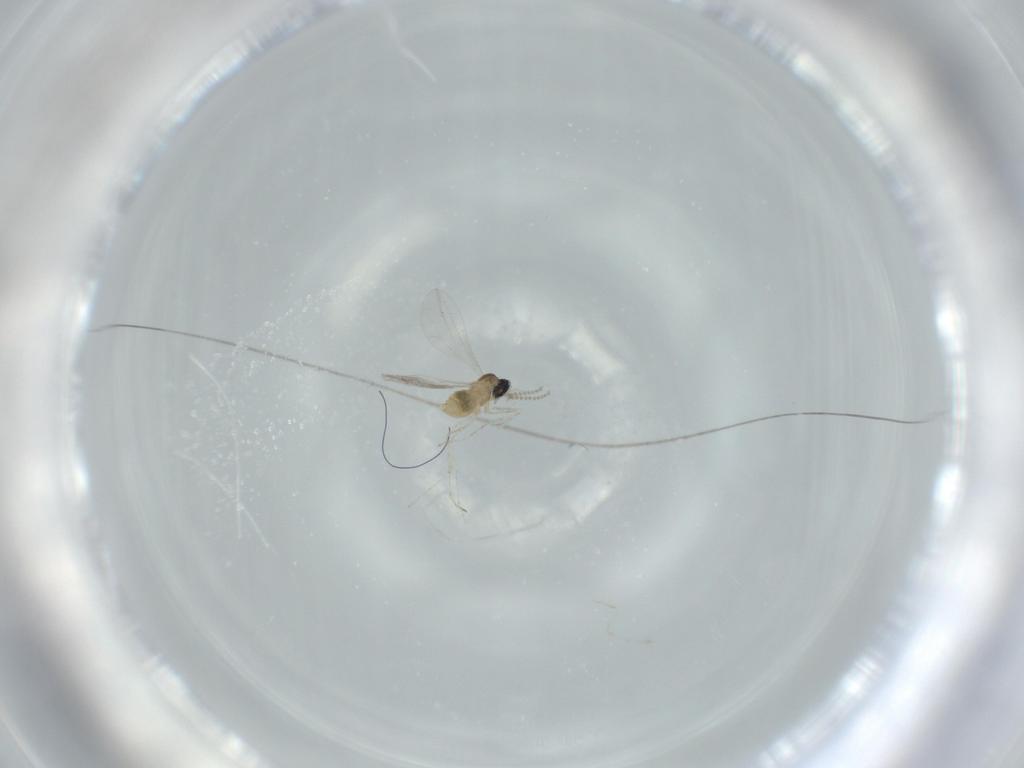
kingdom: Animalia
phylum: Arthropoda
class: Insecta
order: Diptera
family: Cecidomyiidae
